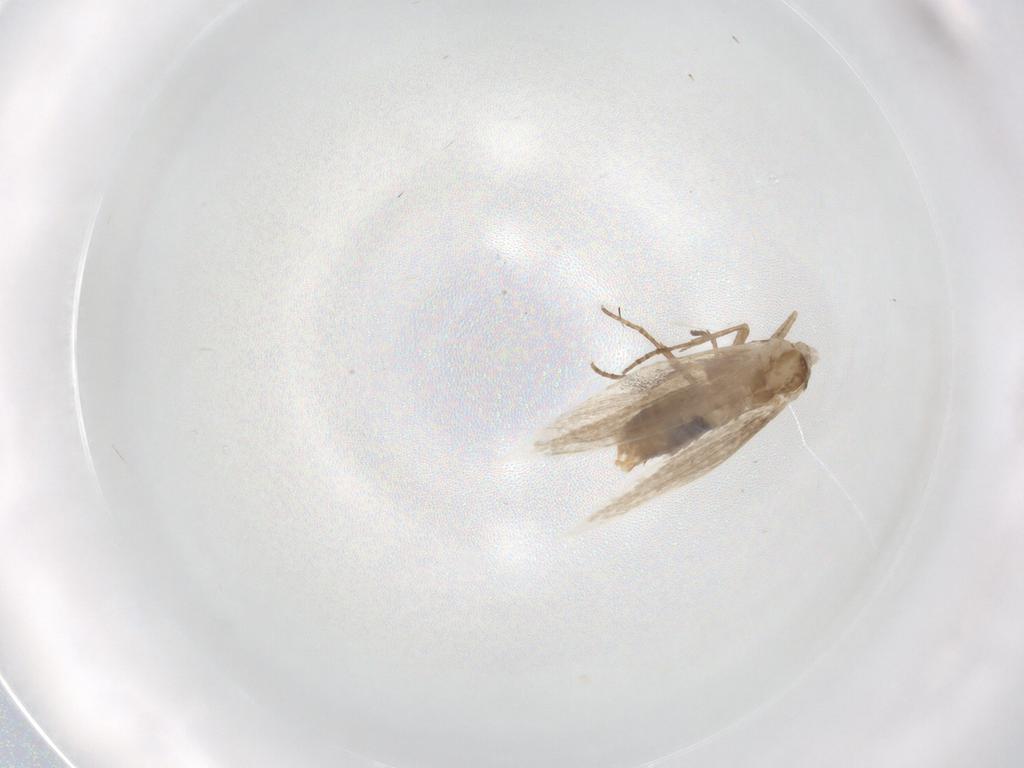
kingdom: Animalia
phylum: Arthropoda
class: Insecta
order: Lepidoptera
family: Bucculatricidae
